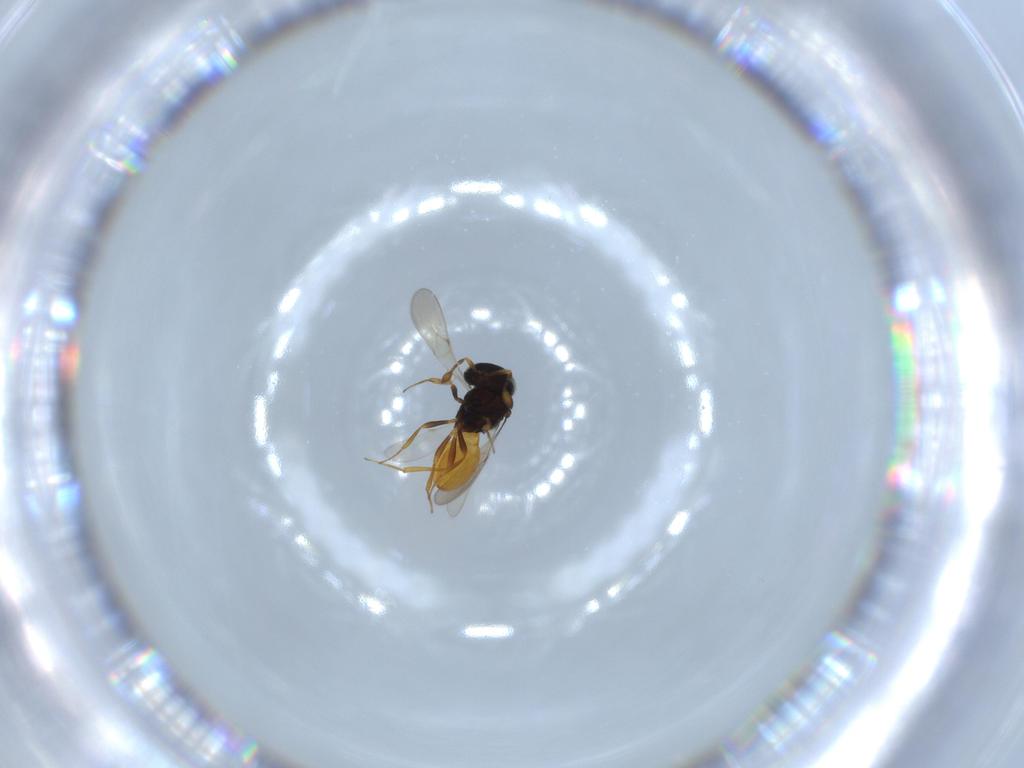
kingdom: Animalia
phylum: Arthropoda
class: Insecta
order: Hymenoptera
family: Scelionidae
